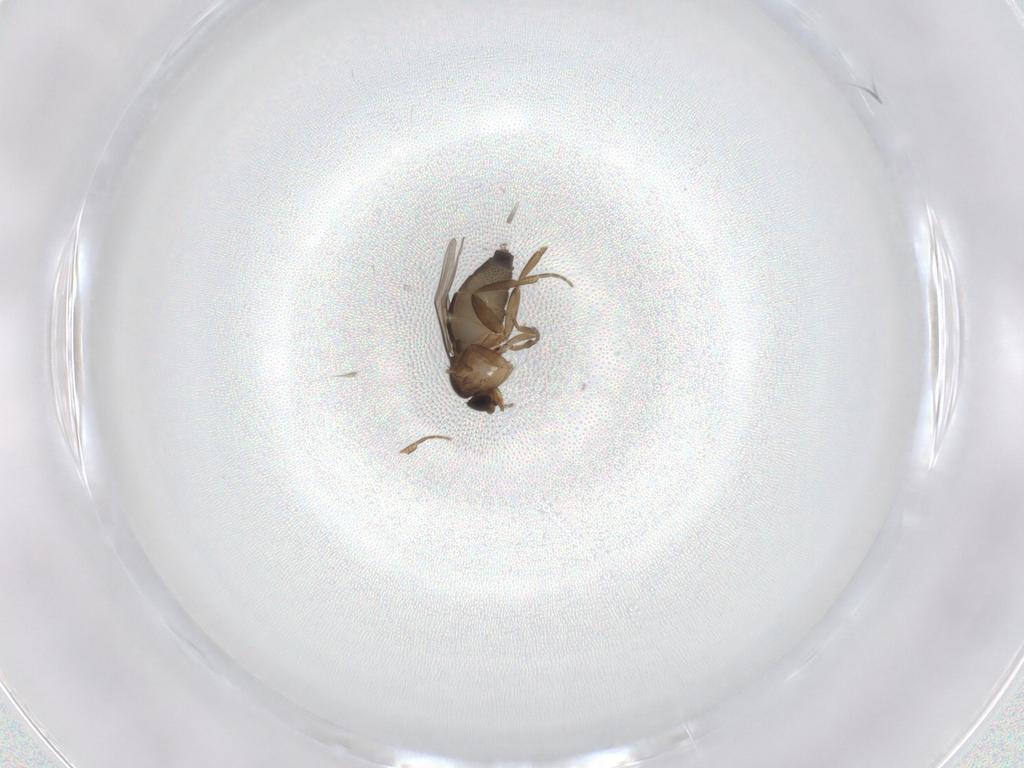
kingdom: Animalia
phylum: Arthropoda
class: Insecta
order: Diptera
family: Phoridae
